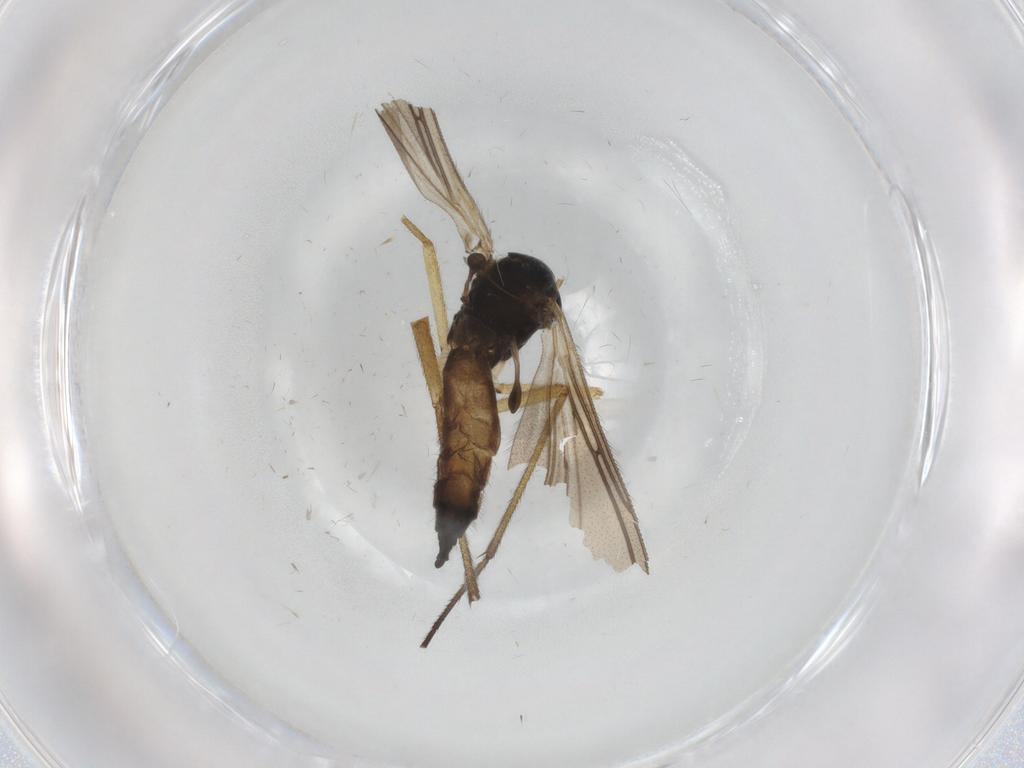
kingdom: Animalia
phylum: Arthropoda
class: Insecta
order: Diptera
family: Sciaridae
